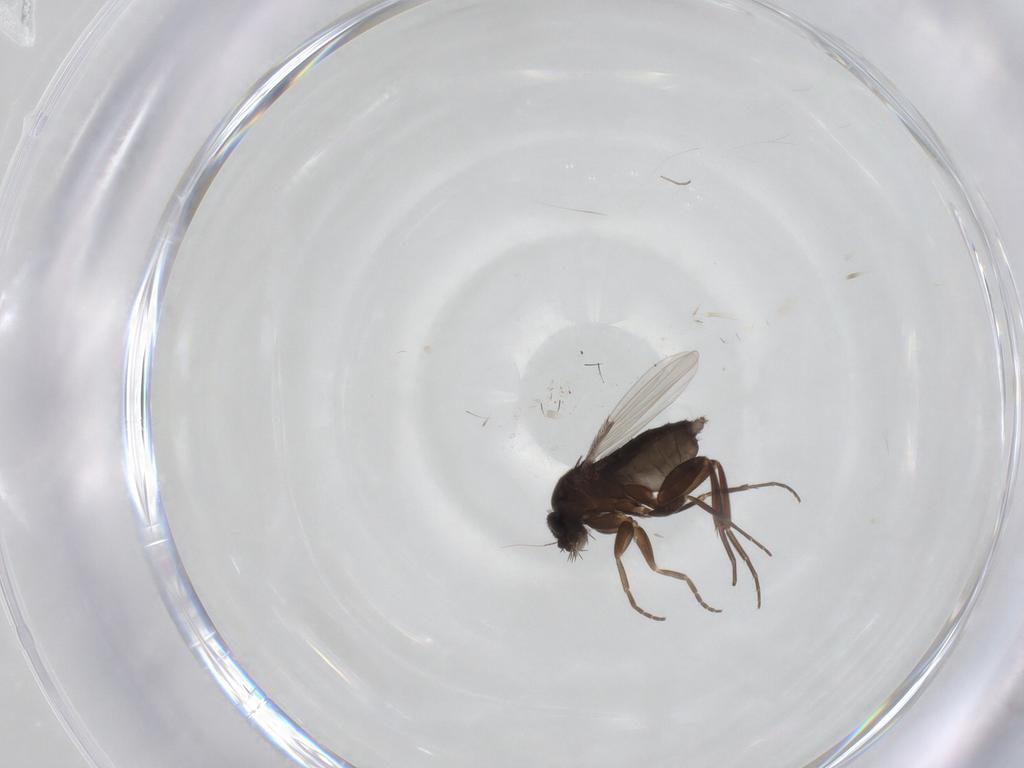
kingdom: Animalia
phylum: Arthropoda
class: Insecta
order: Diptera
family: Phoridae
